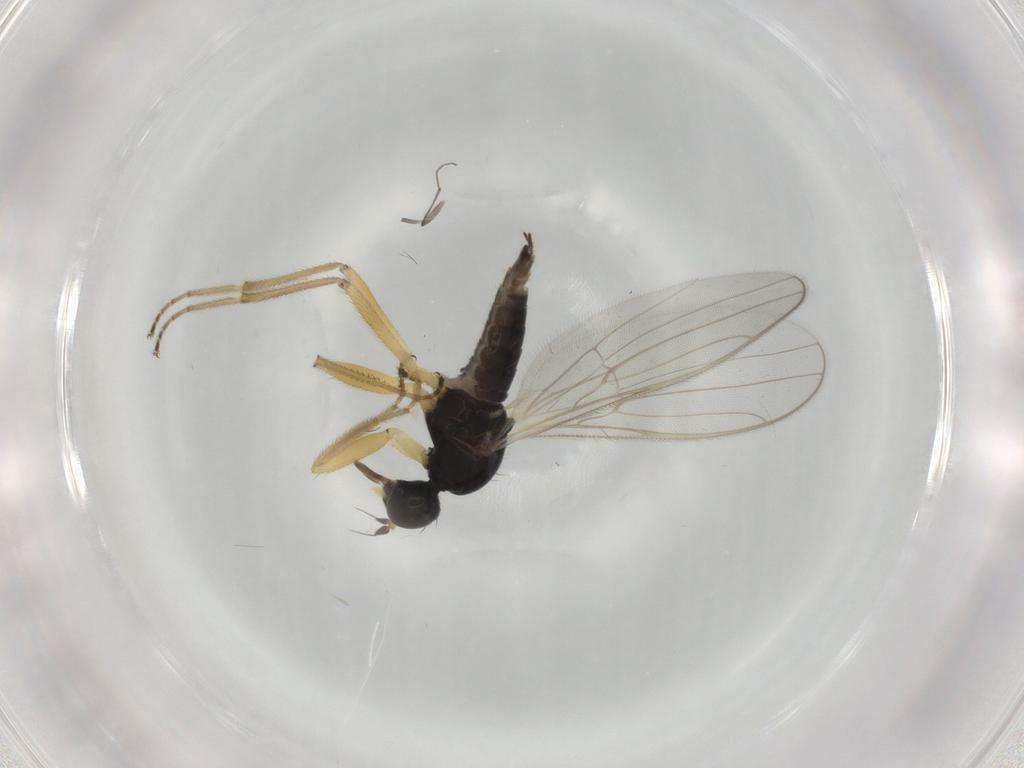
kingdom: Animalia
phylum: Arthropoda
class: Insecta
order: Diptera
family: Hybotidae
